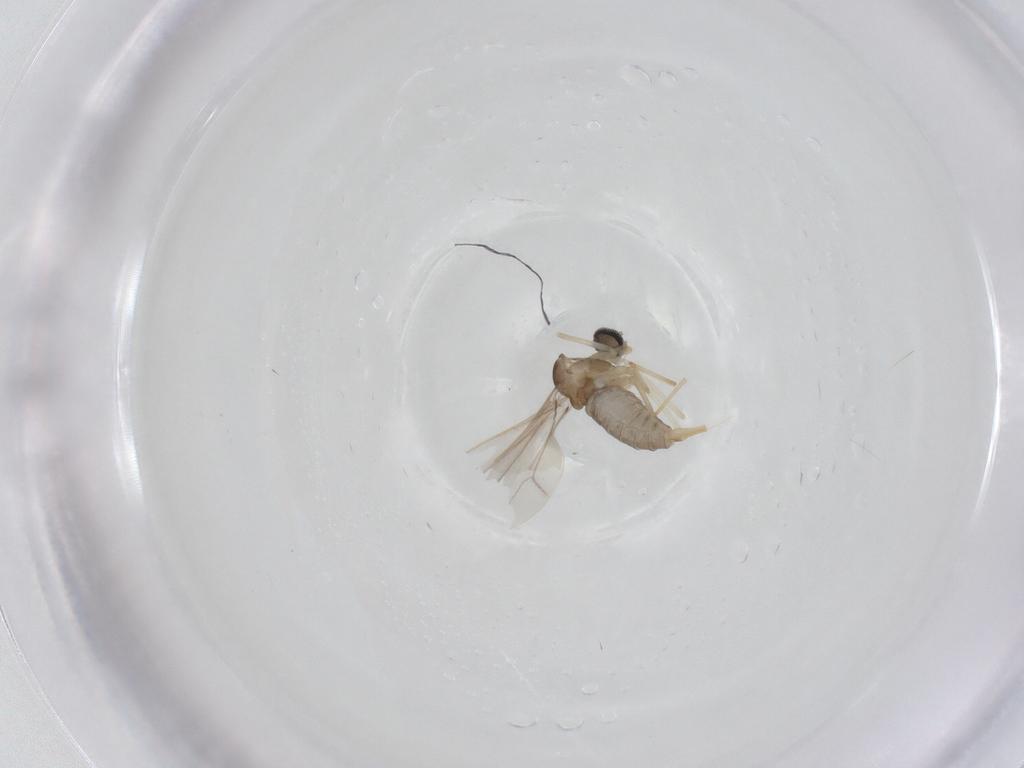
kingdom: Animalia
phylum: Arthropoda
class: Insecta
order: Diptera
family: Cecidomyiidae
